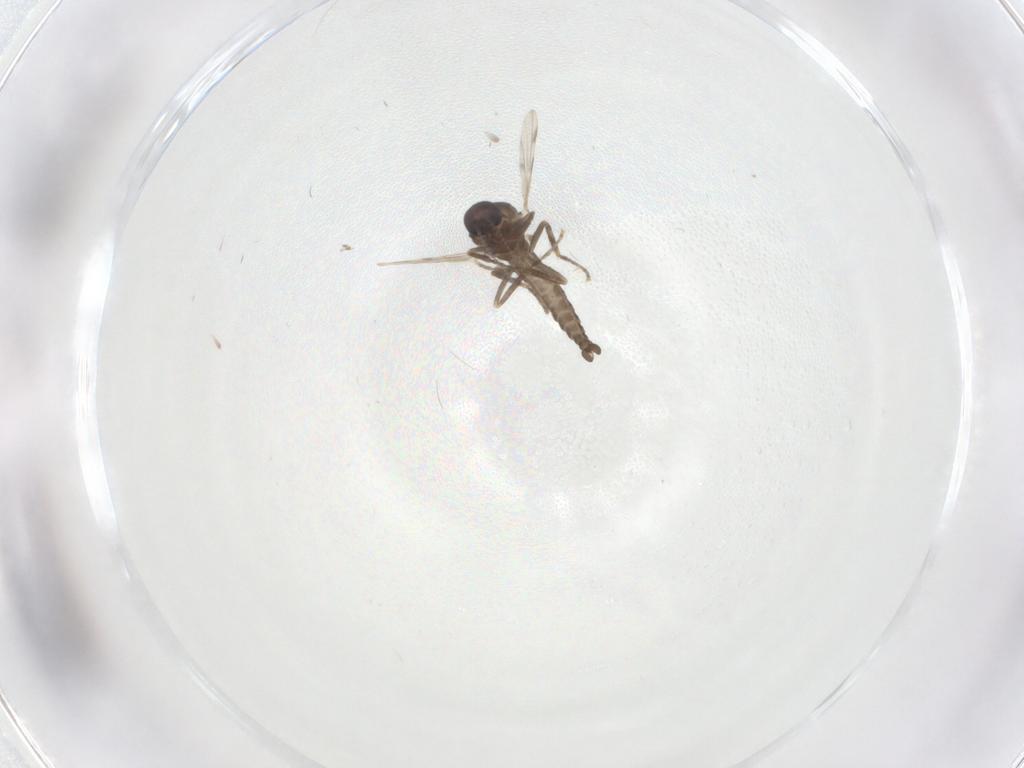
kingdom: Animalia
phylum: Arthropoda
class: Insecta
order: Diptera
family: Ceratopogonidae
